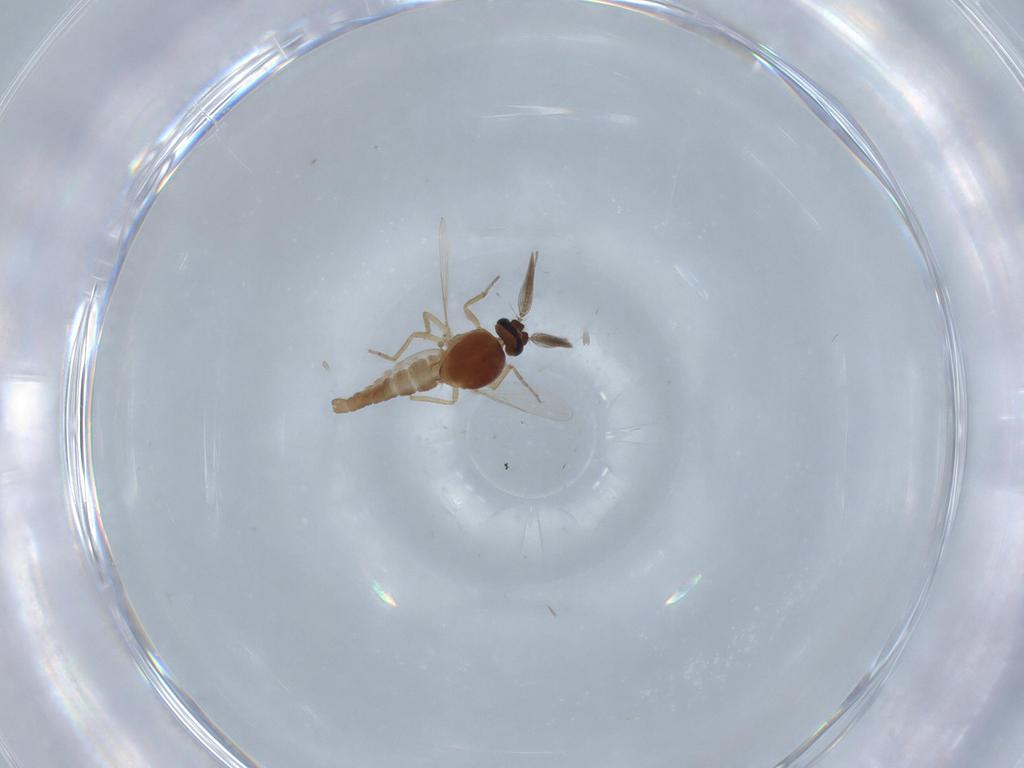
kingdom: Animalia
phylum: Arthropoda
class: Insecta
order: Diptera
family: Ceratopogonidae
